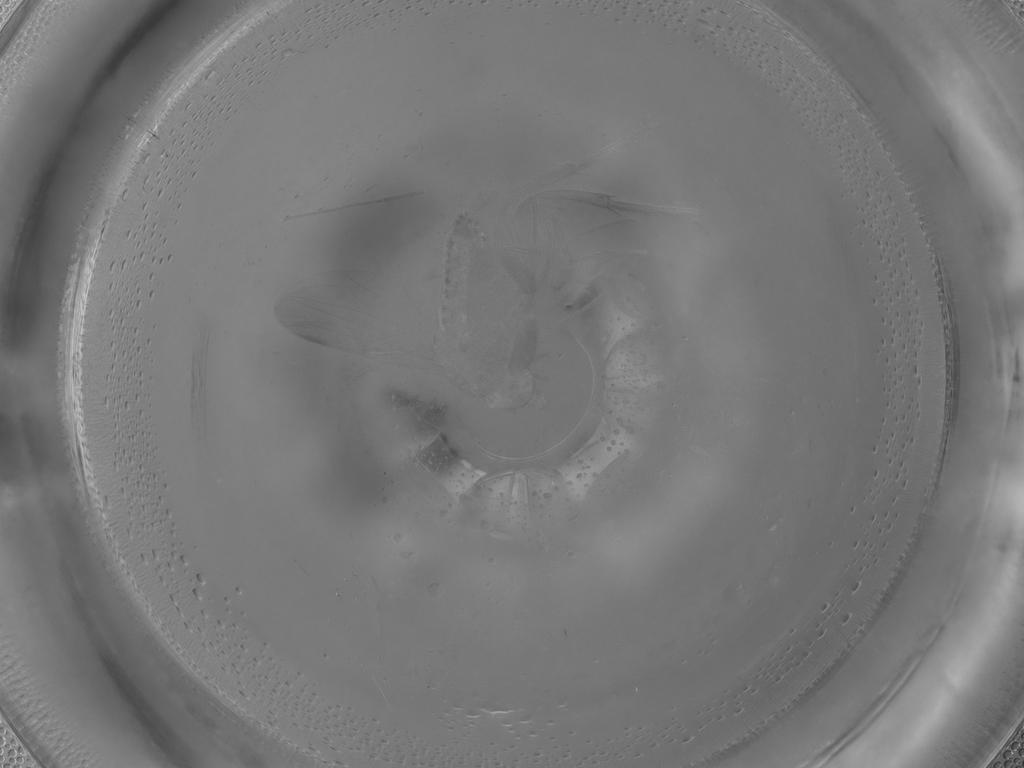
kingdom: Animalia
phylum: Arthropoda
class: Insecta
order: Diptera
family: Phoridae
